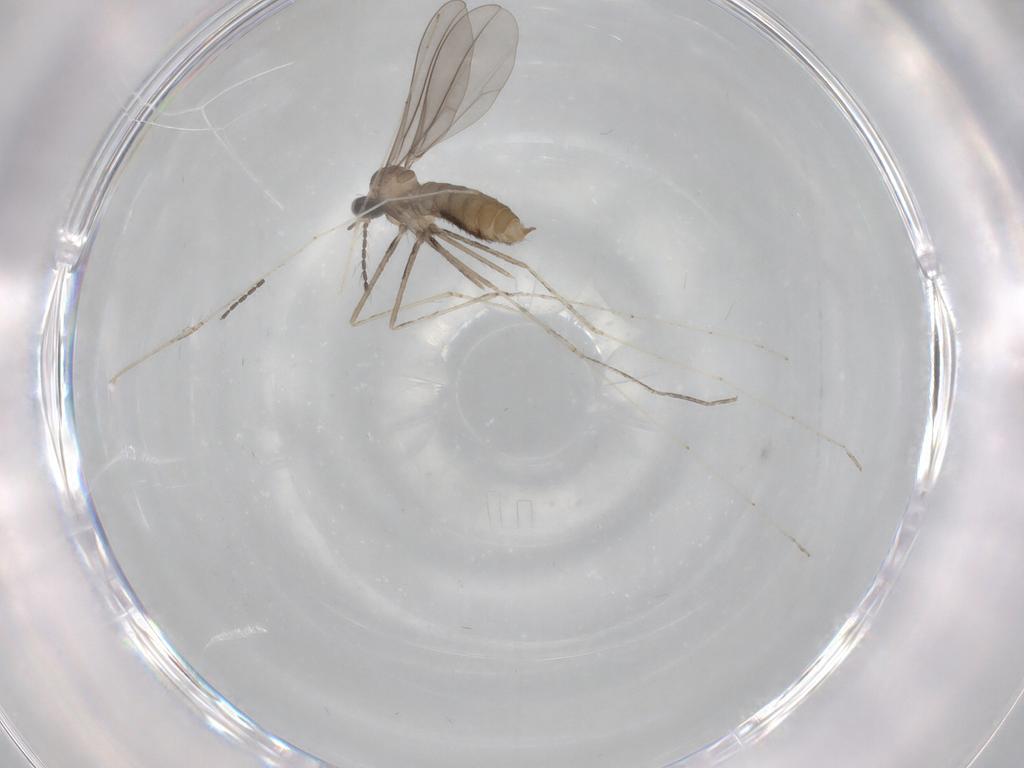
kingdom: Animalia
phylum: Arthropoda
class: Insecta
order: Diptera
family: Cecidomyiidae
